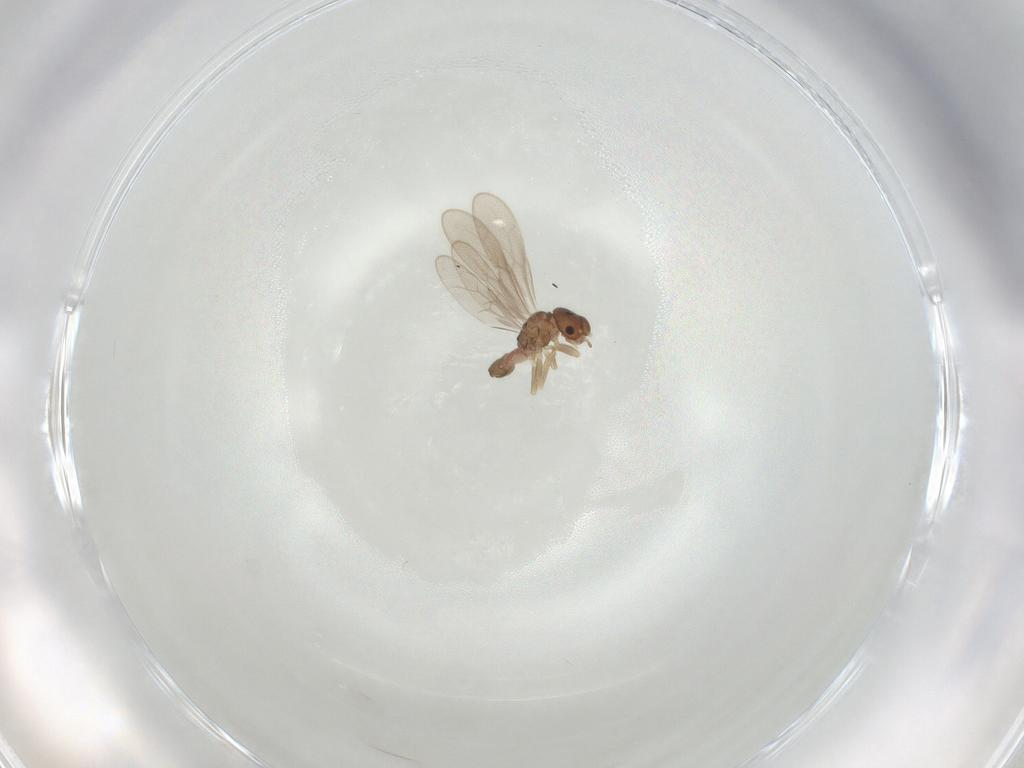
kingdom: Animalia
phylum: Arthropoda
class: Insecta
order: Psocodea
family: Archipsocidae
